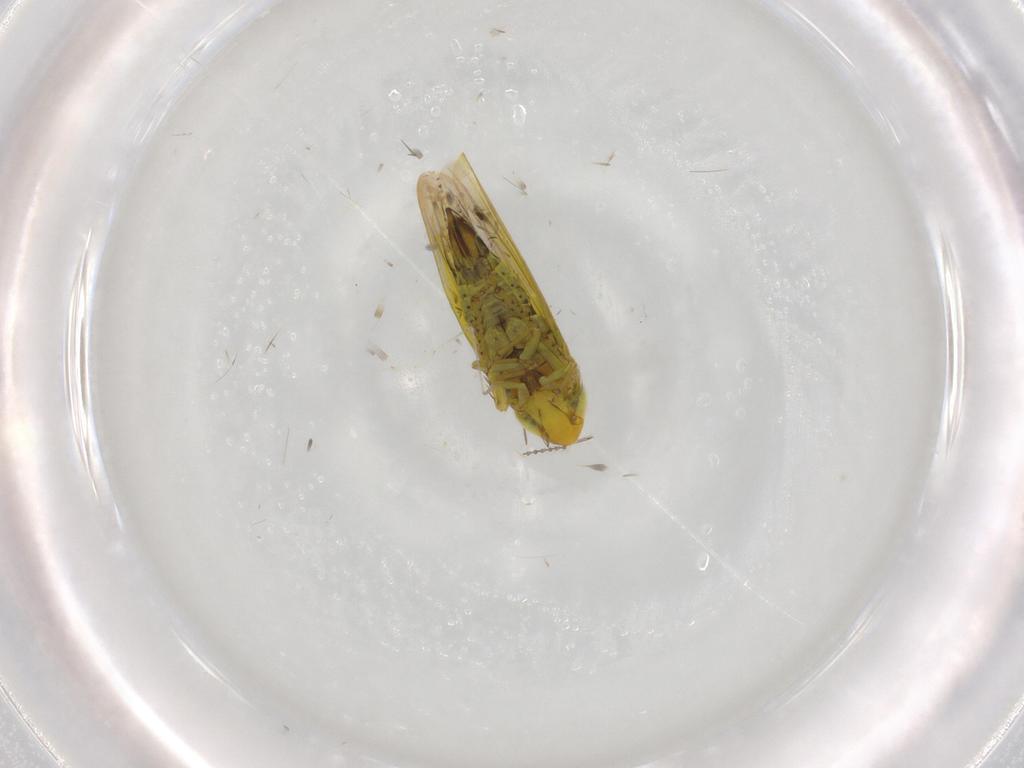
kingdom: Animalia
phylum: Arthropoda
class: Insecta
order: Hemiptera
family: Cicadellidae
